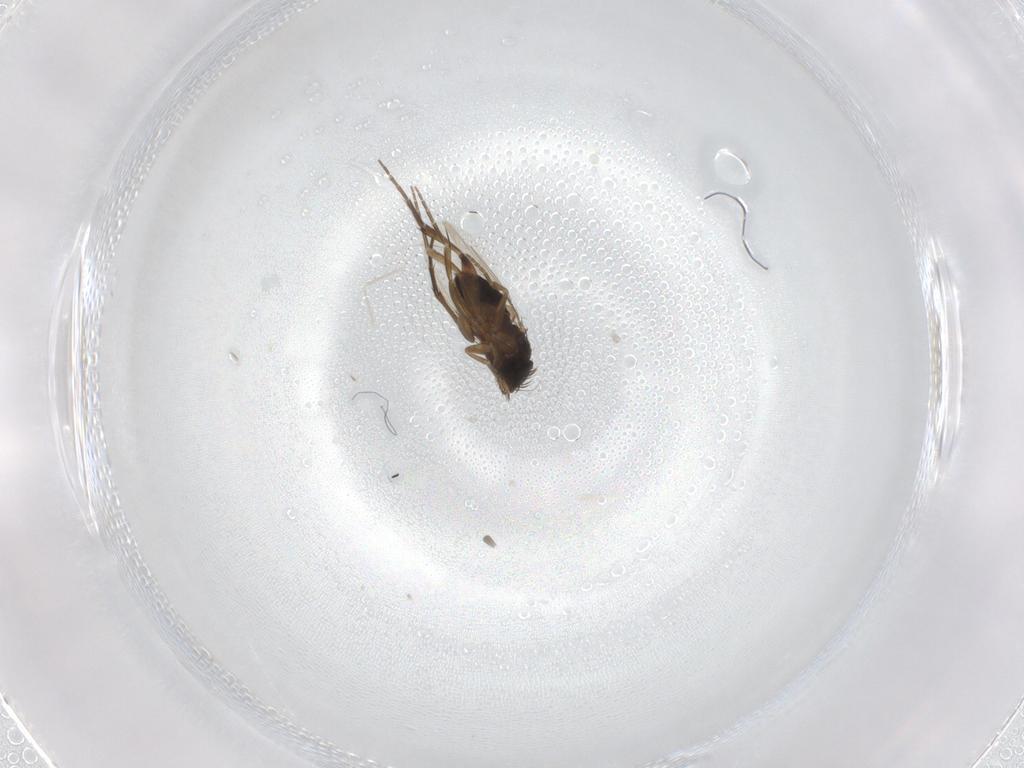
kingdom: Animalia
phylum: Arthropoda
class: Insecta
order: Diptera
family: Phoridae
